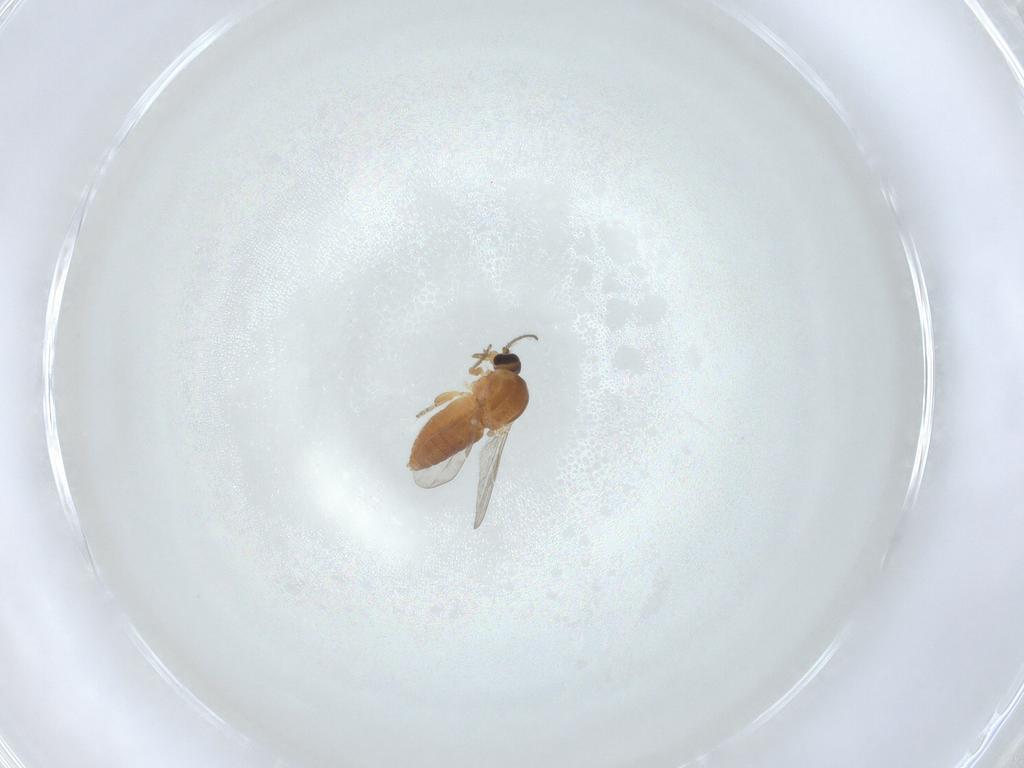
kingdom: Animalia
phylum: Arthropoda
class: Insecta
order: Diptera
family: Ceratopogonidae
